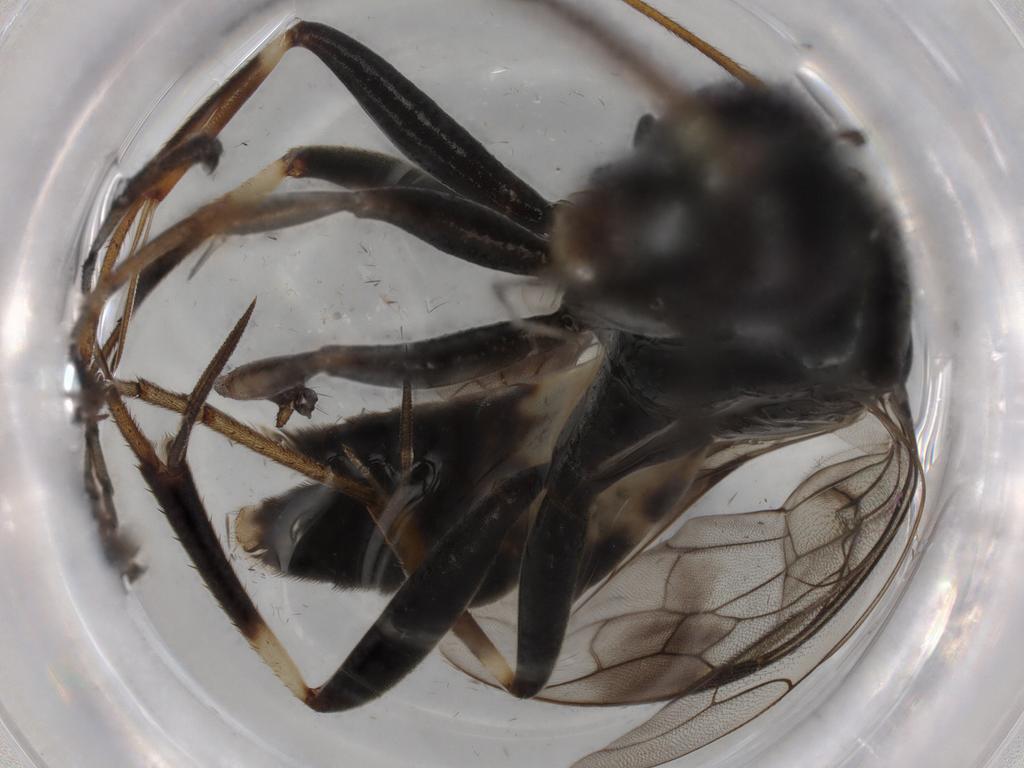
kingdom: Animalia
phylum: Arthropoda
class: Insecta
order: Hymenoptera
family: Pompilidae
